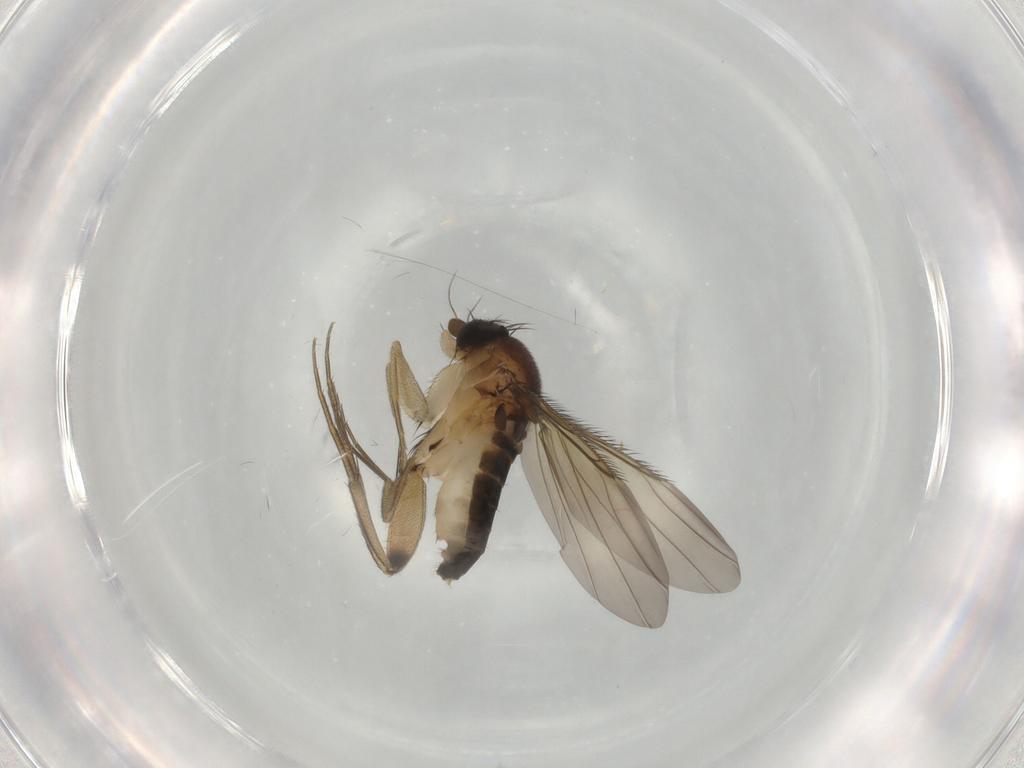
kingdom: Animalia
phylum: Arthropoda
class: Insecta
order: Diptera
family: Phoridae
